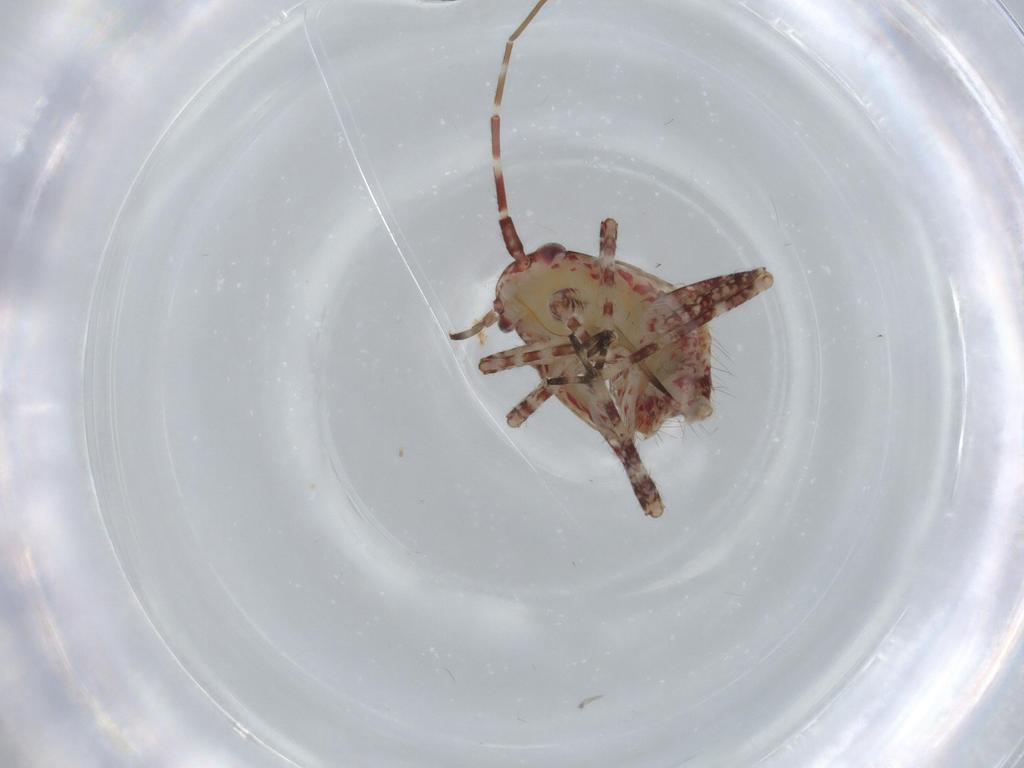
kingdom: Animalia
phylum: Arthropoda
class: Insecta
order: Hemiptera
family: Miridae
